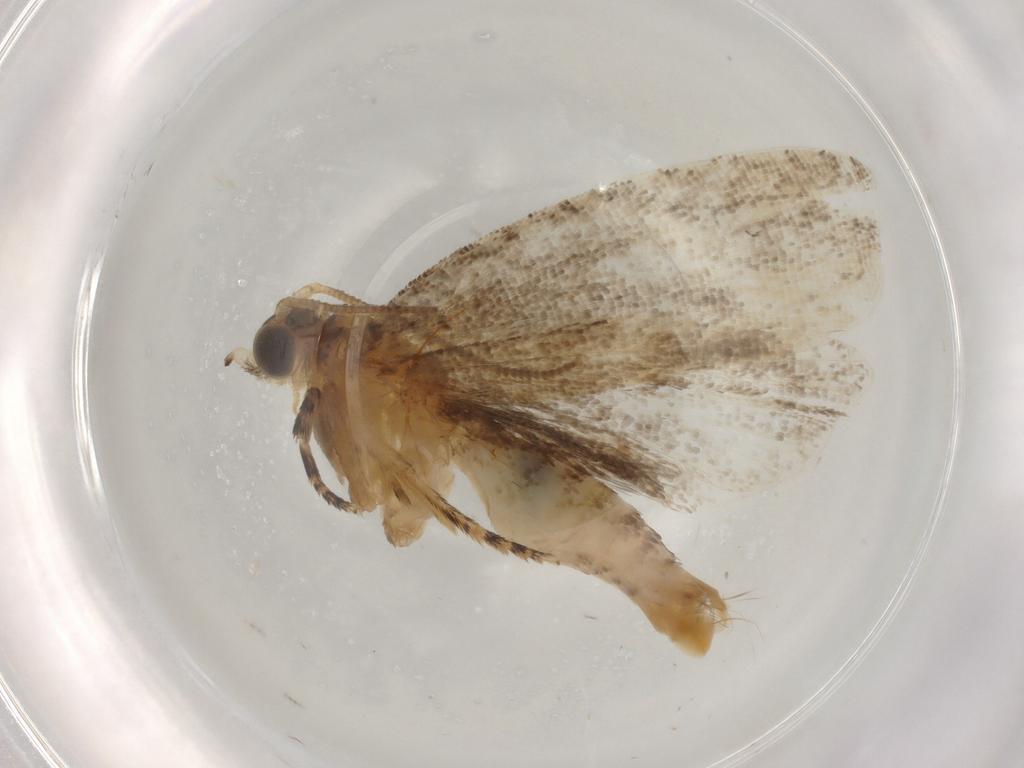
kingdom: Animalia
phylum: Arthropoda
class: Insecta
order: Lepidoptera
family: Tortricidae
